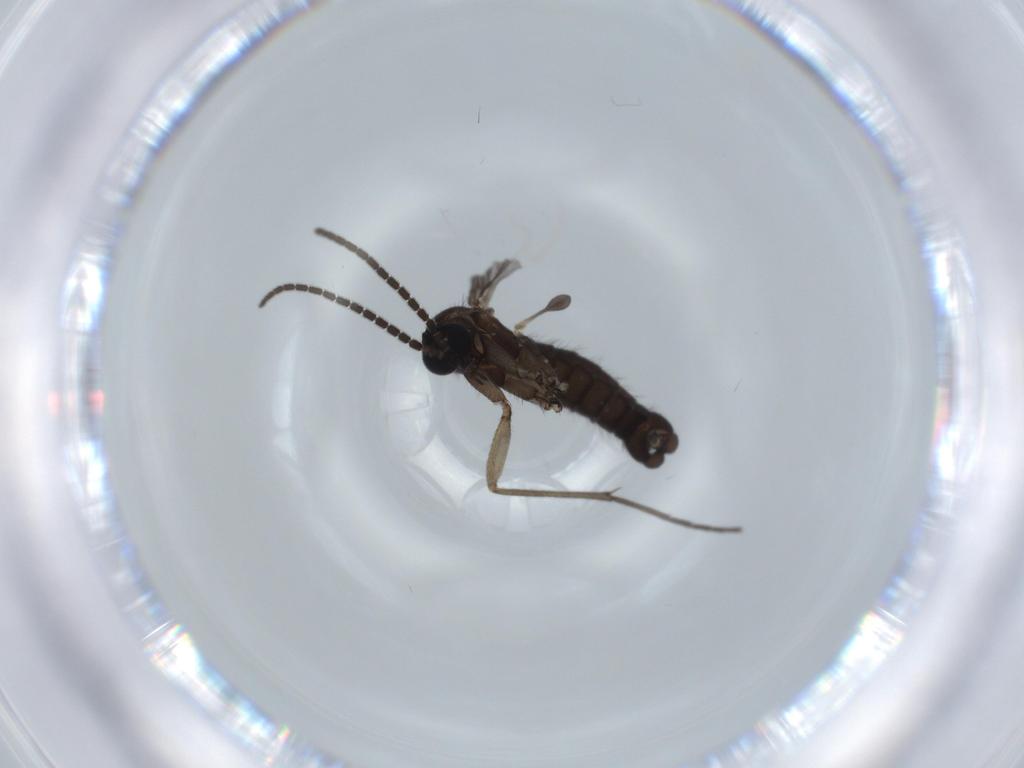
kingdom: Animalia
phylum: Arthropoda
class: Insecta
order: Diptera
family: Sciaridae
